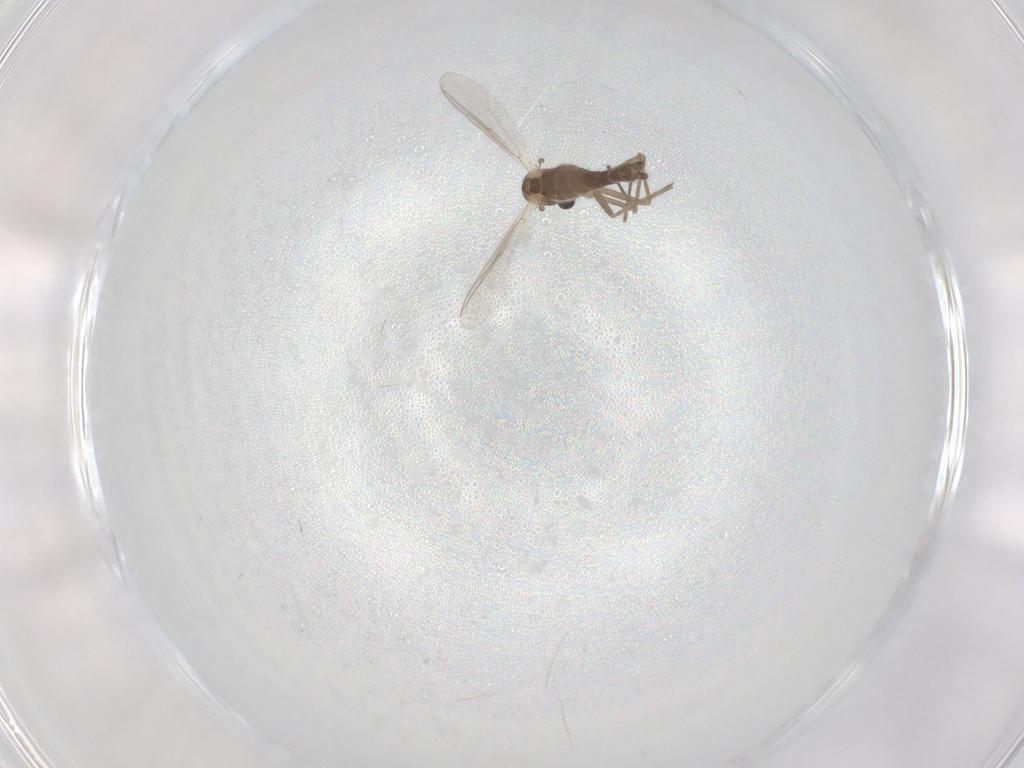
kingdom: Animalia
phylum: Arthropoda
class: Insecta
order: Diptera
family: Chironomidae
